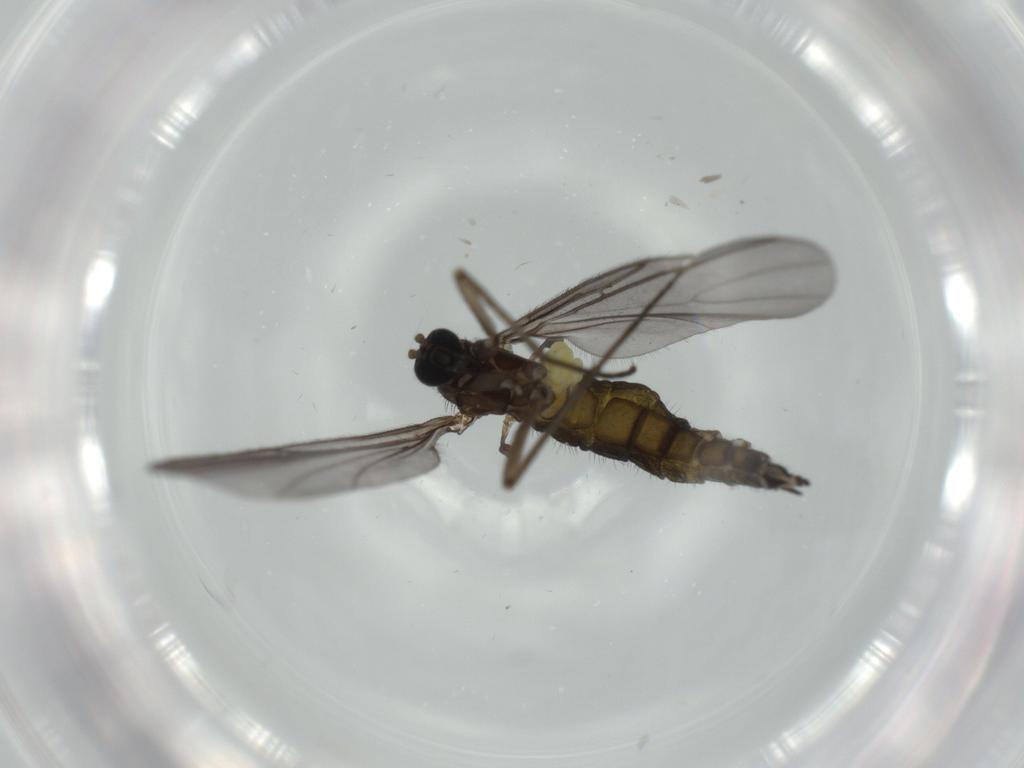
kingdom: Animalia
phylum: Arthropoda
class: Insecta
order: Diptera
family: Sciaridae
